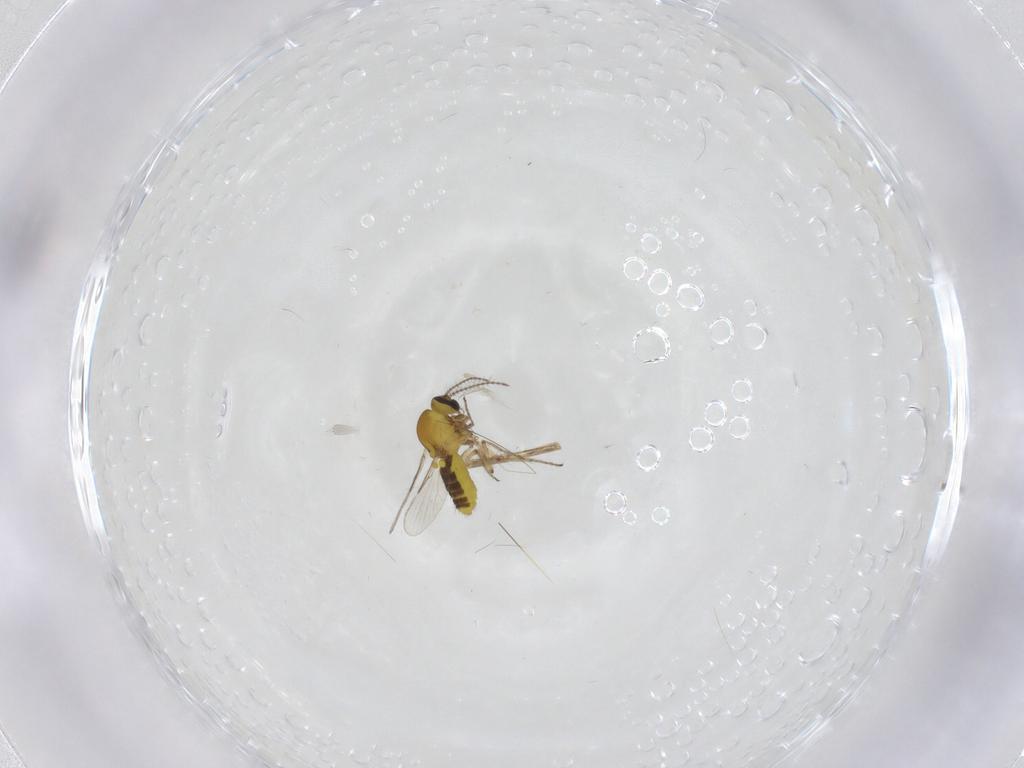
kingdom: Animalia
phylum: Arthropoda
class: Insecta
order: Diptera
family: Ceratopogonidae
